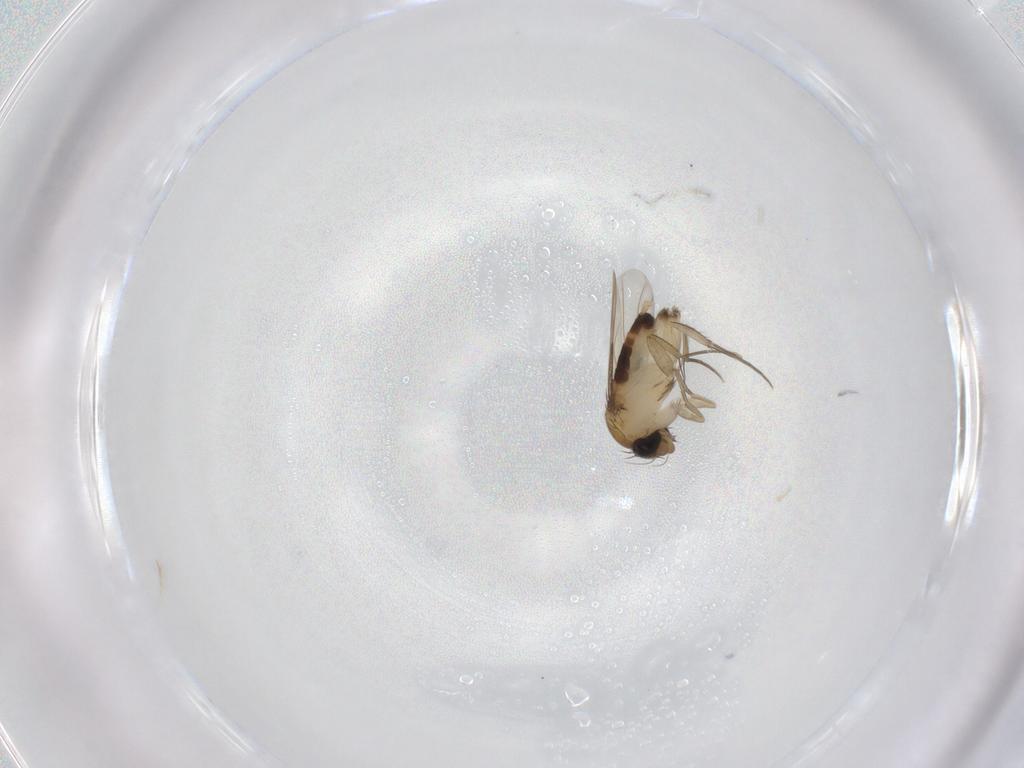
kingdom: Animalia
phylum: Arthropoda
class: Insecta
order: Diptera
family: Phoridae
